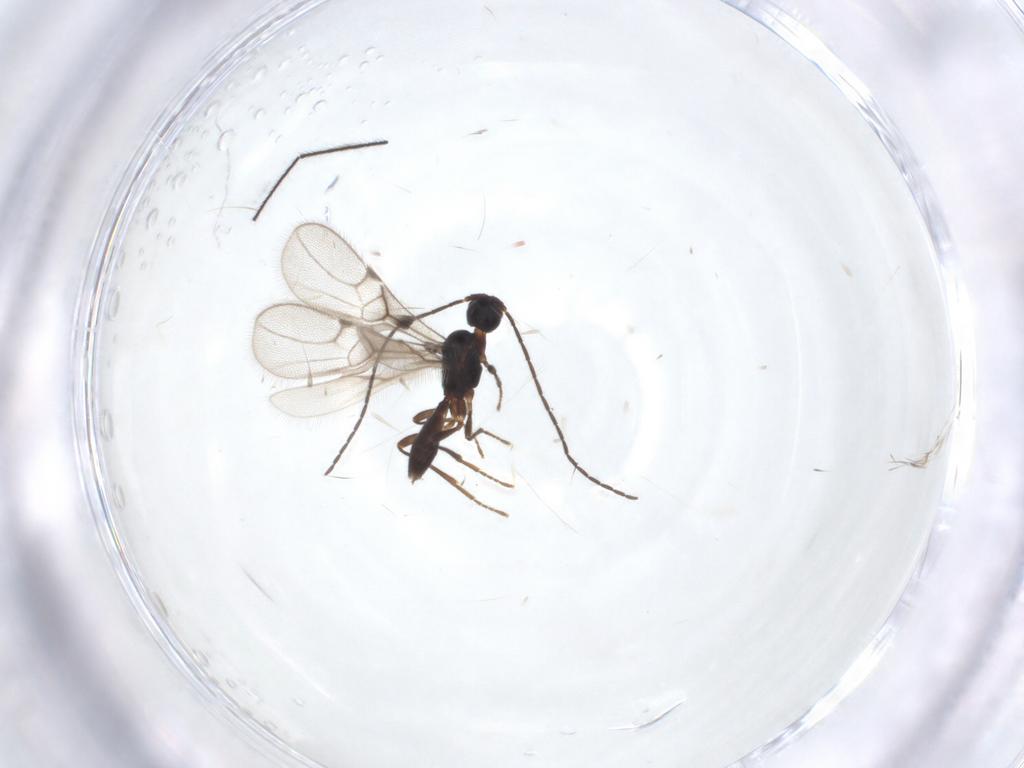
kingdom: Animalia
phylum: Arthropoda
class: Insecta
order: Hymenoptera
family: Braconidae
